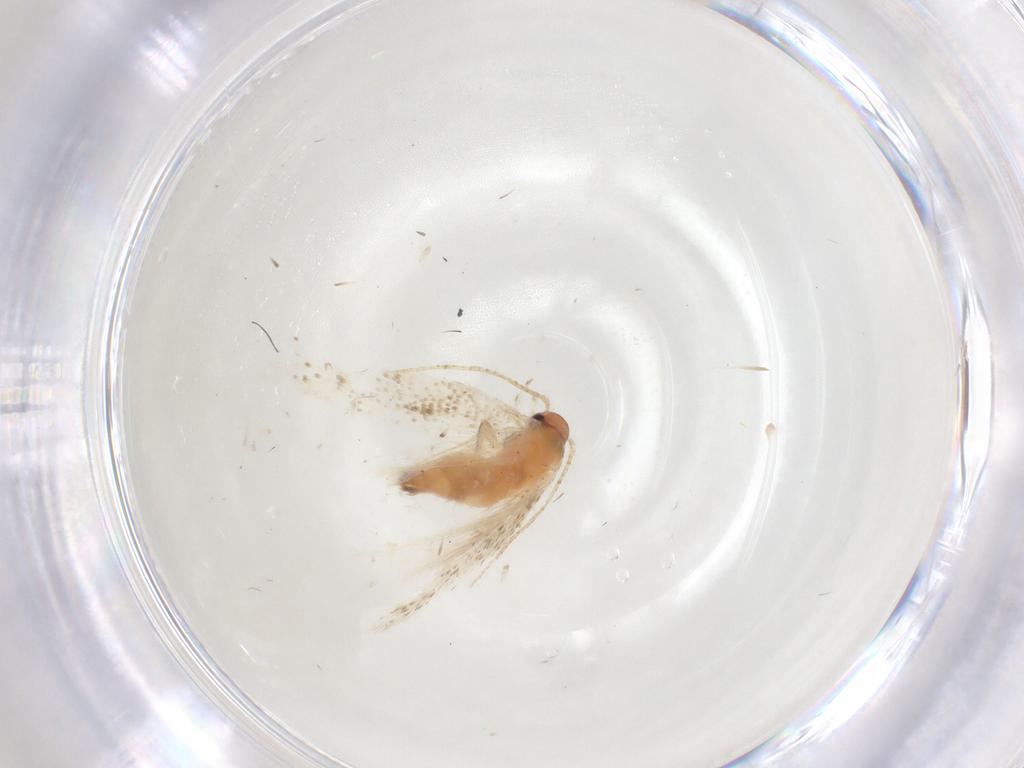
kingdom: Animalia
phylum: Arthropoda
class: Insecta
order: Lepidoptera
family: Gelechiidae
